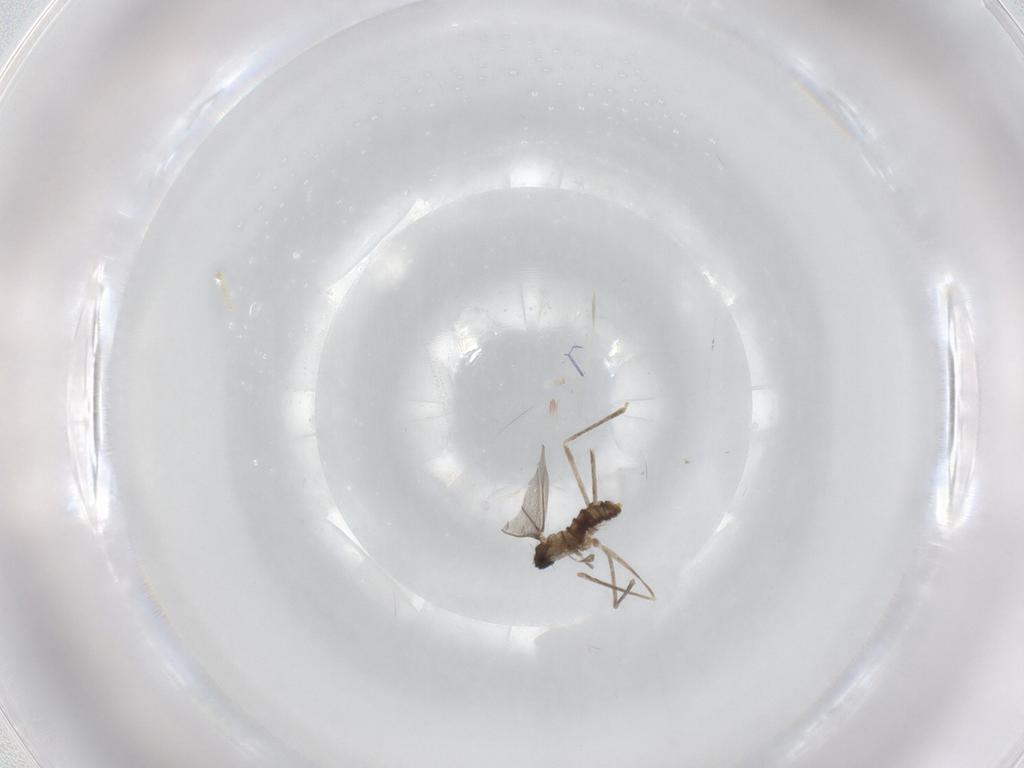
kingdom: Animalia
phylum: Arthropoda
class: Insecta
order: Diptera
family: Cecidomyiidae
